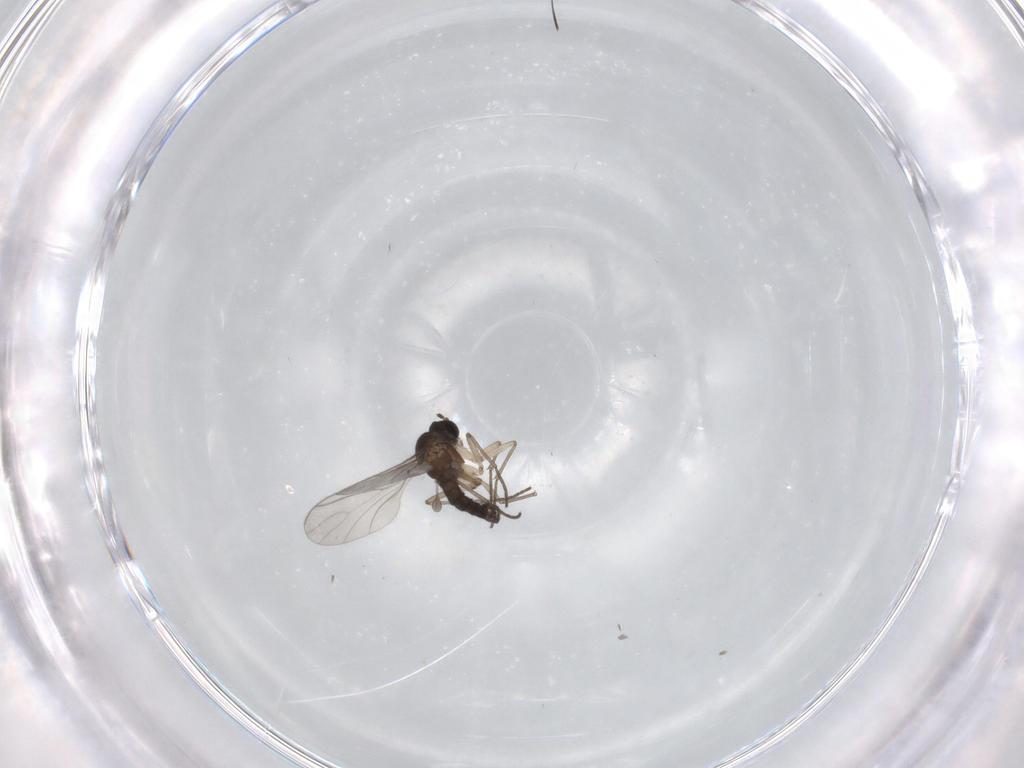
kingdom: Animalia
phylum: Arthropoda
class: Insecta
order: Diptera
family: Sciaridae
